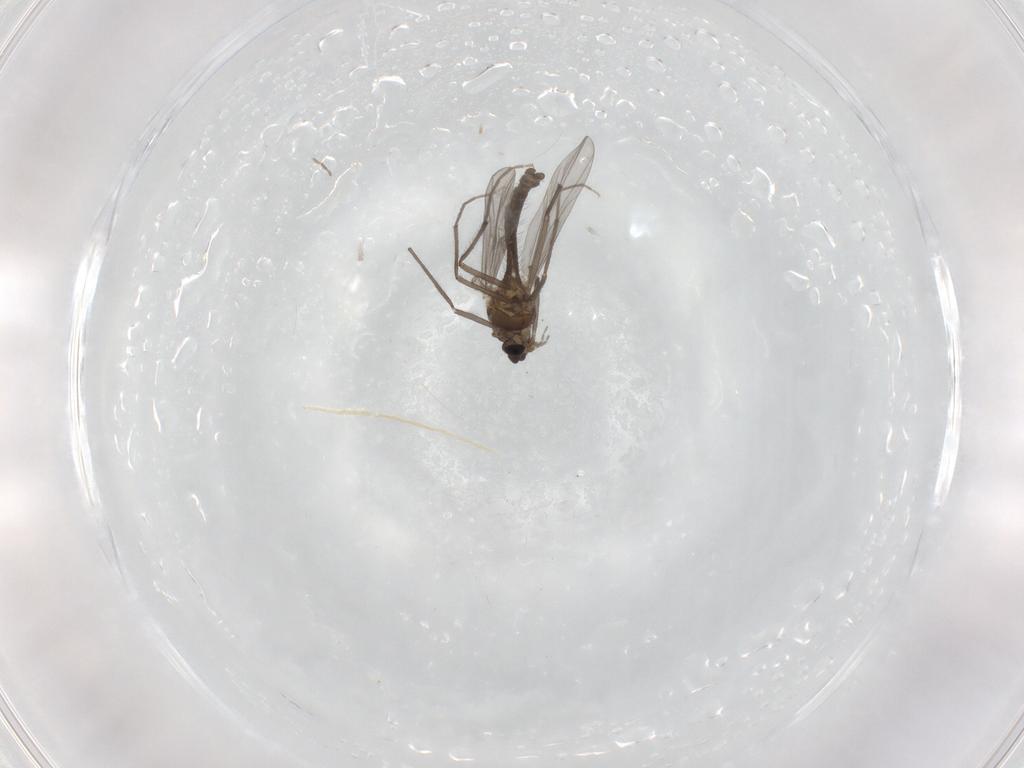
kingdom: Animalia
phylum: Arthropoda
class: Insecta
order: Diptera
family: Chironomidae
